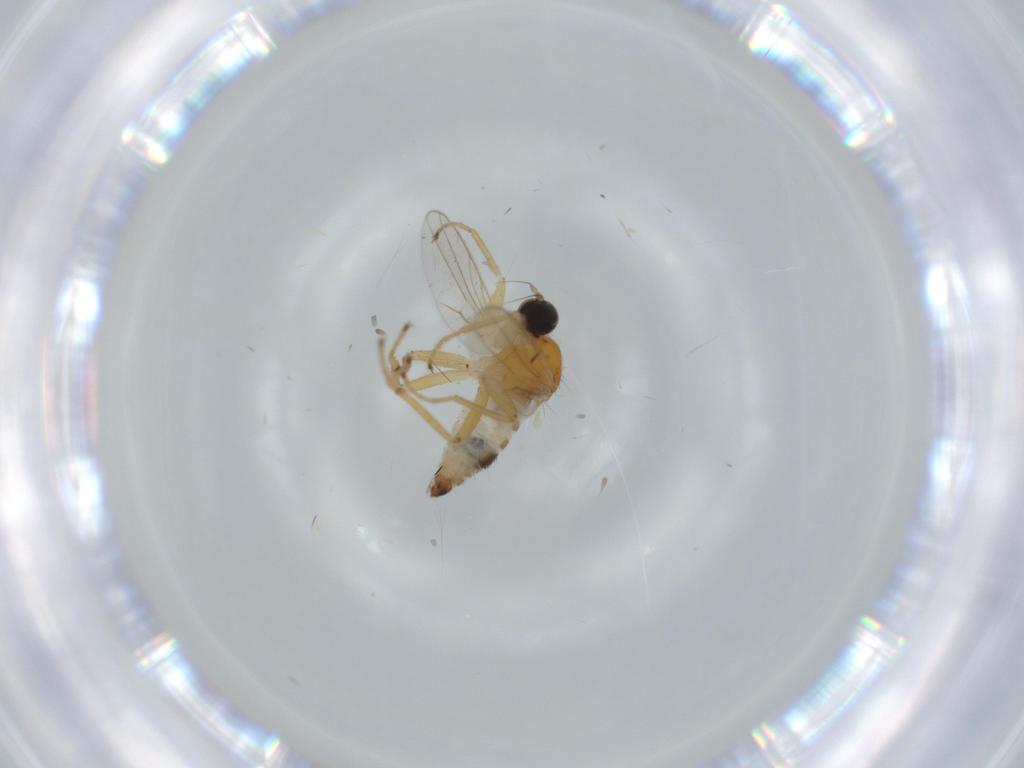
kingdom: Animalia
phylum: Arthropoda
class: Insecta
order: Diptera
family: Hybotidae
